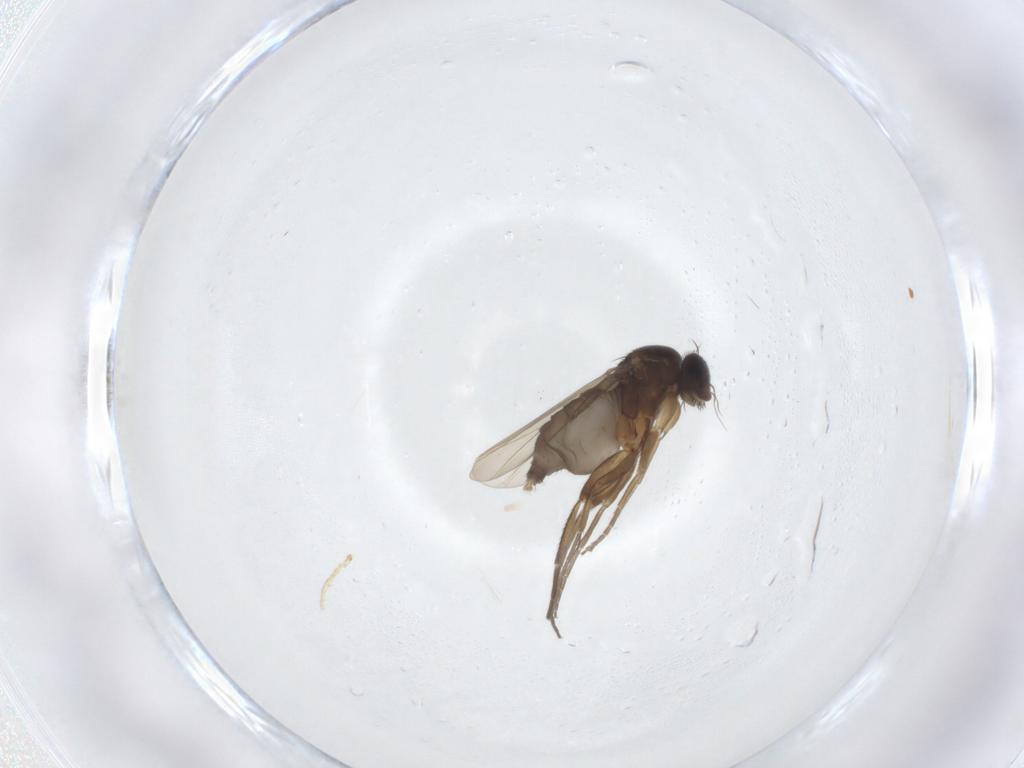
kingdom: Animalia
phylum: Arthropoda
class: Insecta
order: Diptera
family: Phoridae
